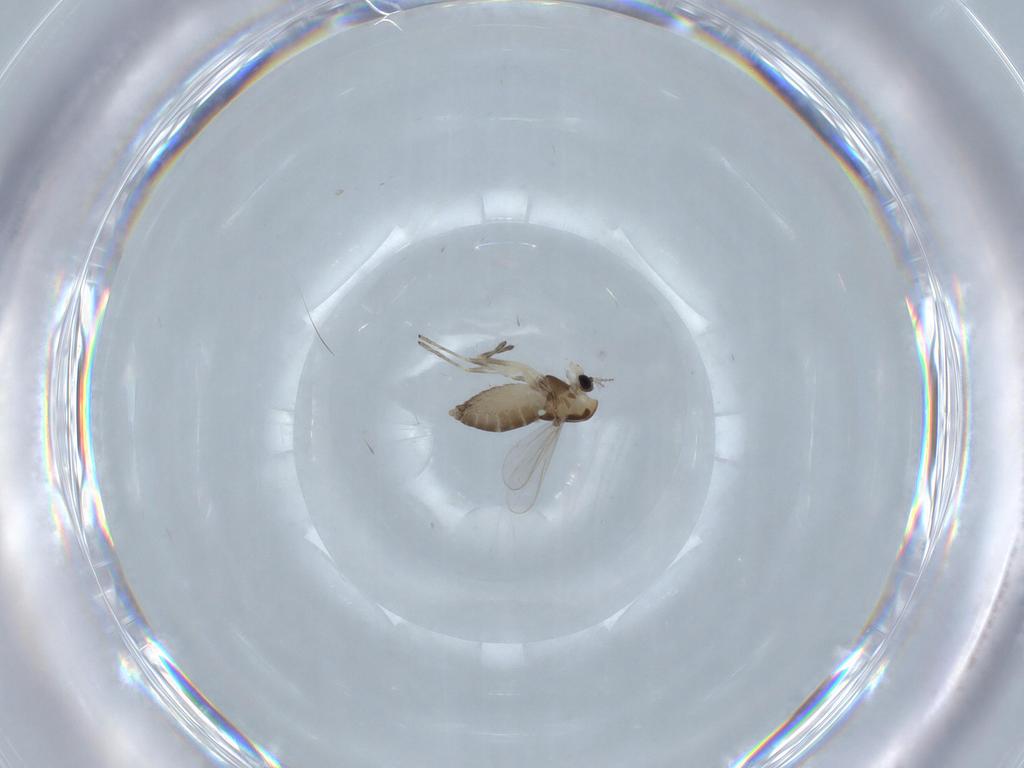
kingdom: Animalia
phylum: Arthropoda
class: Insecta
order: Diptera
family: Chironomidae
